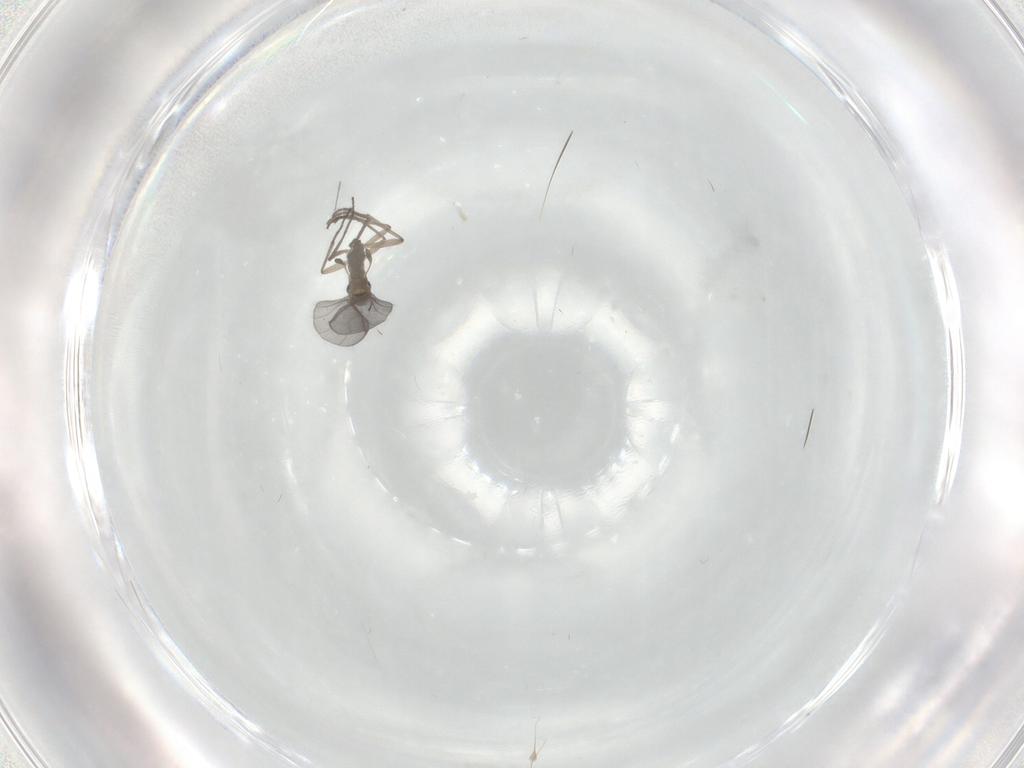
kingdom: Animalia
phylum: Arthropoda
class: Insecta
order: Diptera
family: Sciaridae
